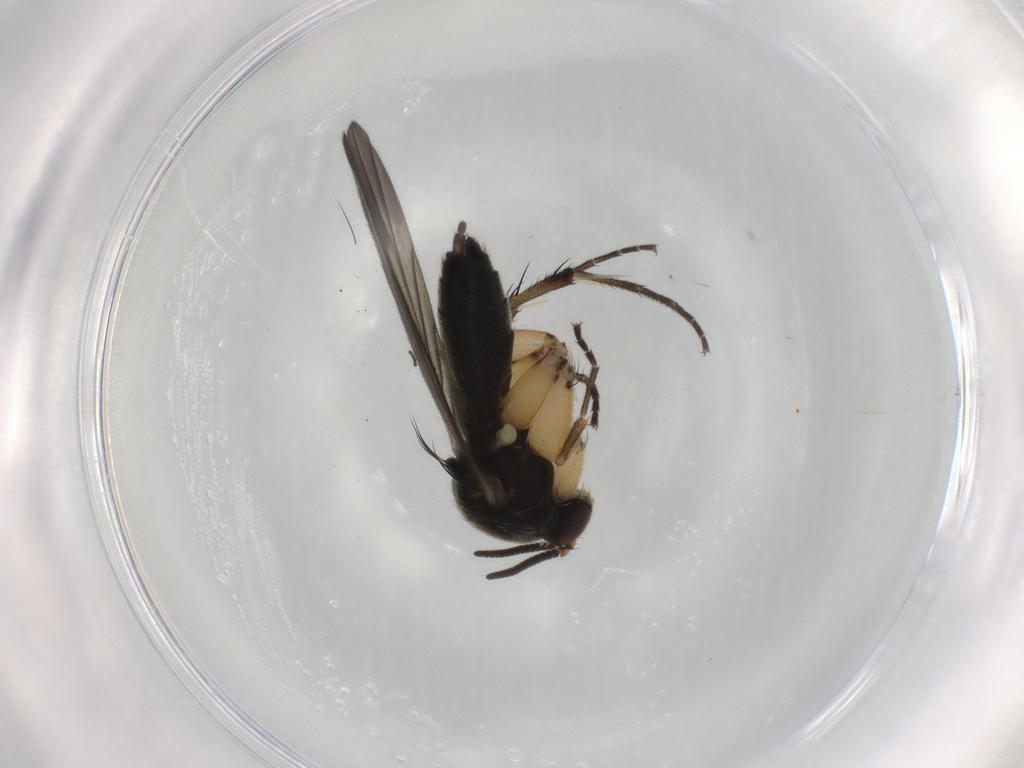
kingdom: Animalia
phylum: Arthropoda
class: Insecta
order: Diptera
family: Mycetophilidae
